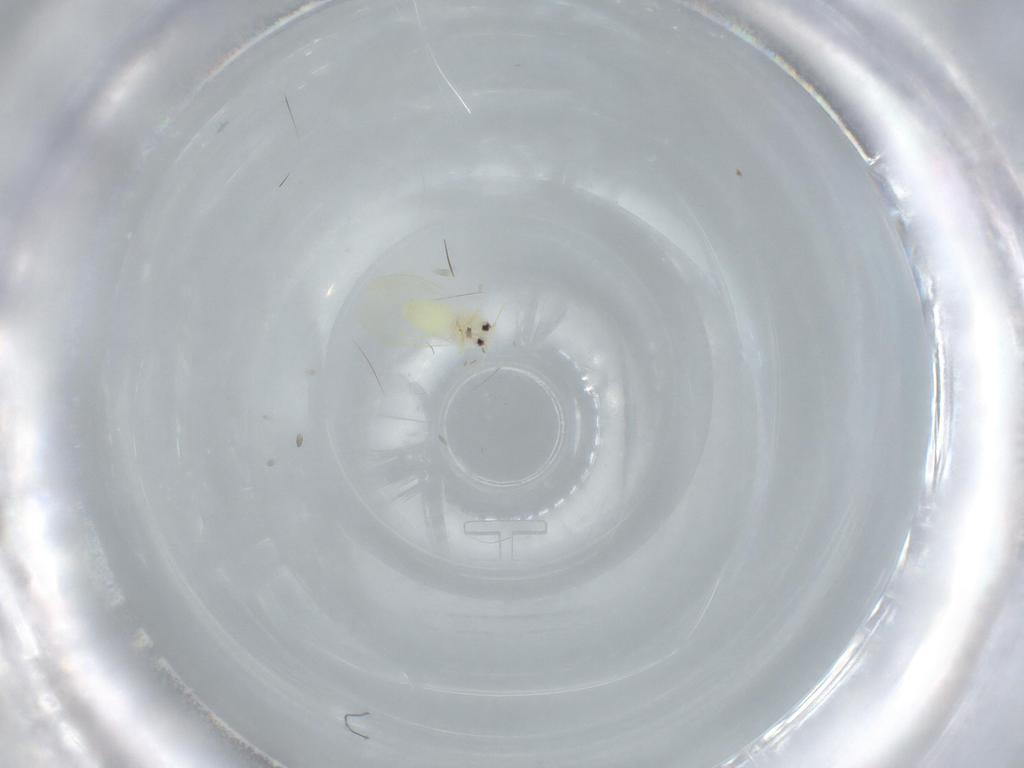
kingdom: Animalia
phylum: Arthropoda
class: Insecta
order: Hemiptera
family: Aleyrodidae
